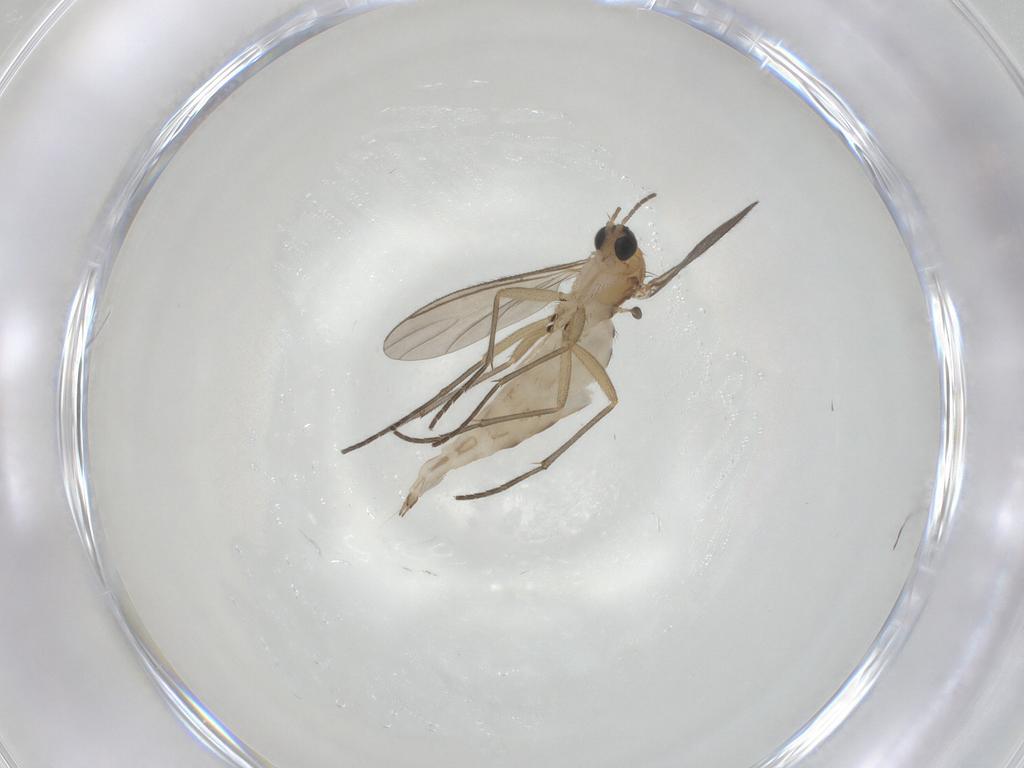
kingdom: Animalia
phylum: Arthropoda
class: Insecta
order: Diptera
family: Sciaridae
